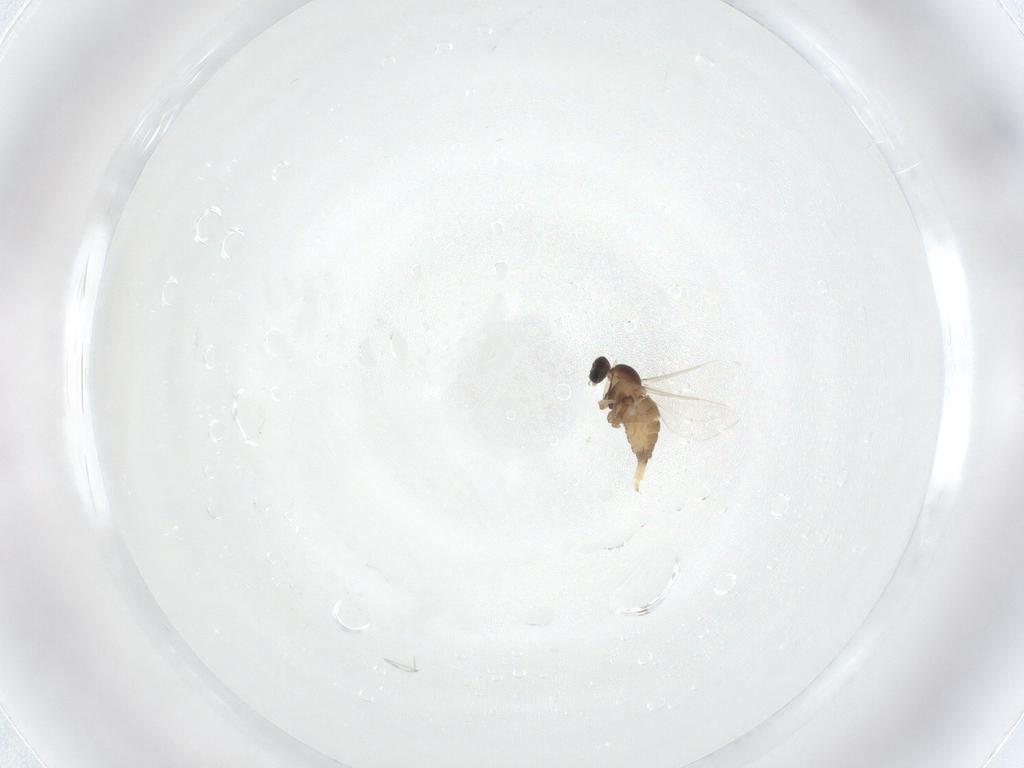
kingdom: Animalia
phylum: Arthropoda
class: Insecta
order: Diptera
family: Cecidomyiidae
